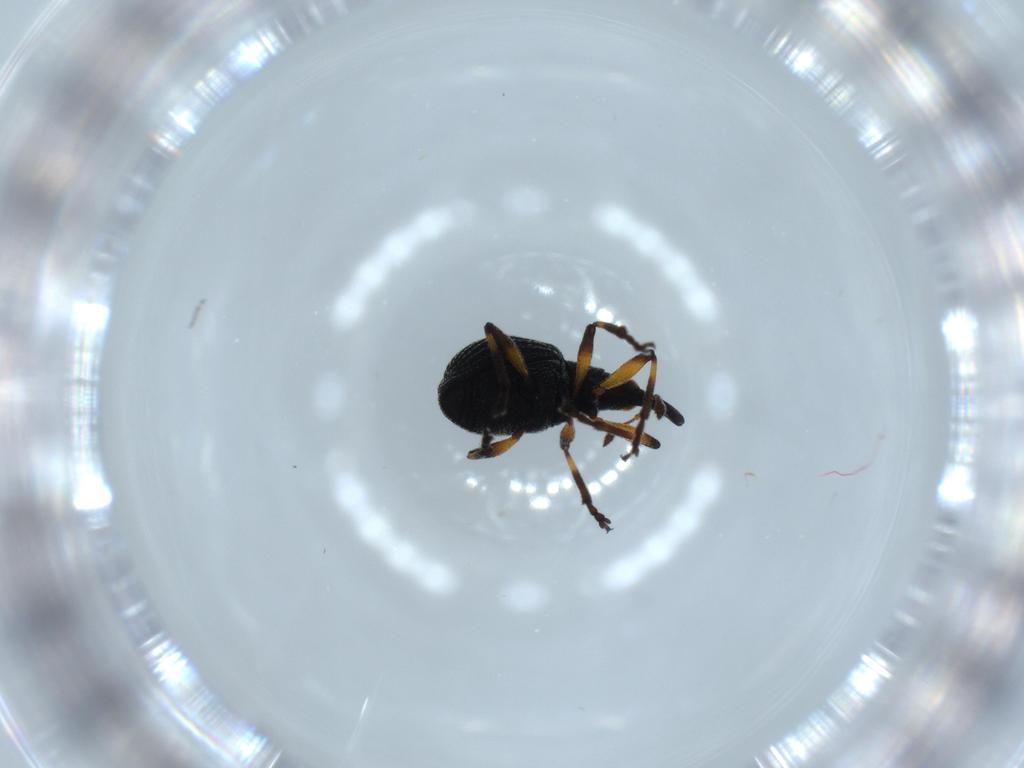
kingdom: Animalia
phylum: Arthropoda
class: Insecta
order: Coleoptera
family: Brentidae
